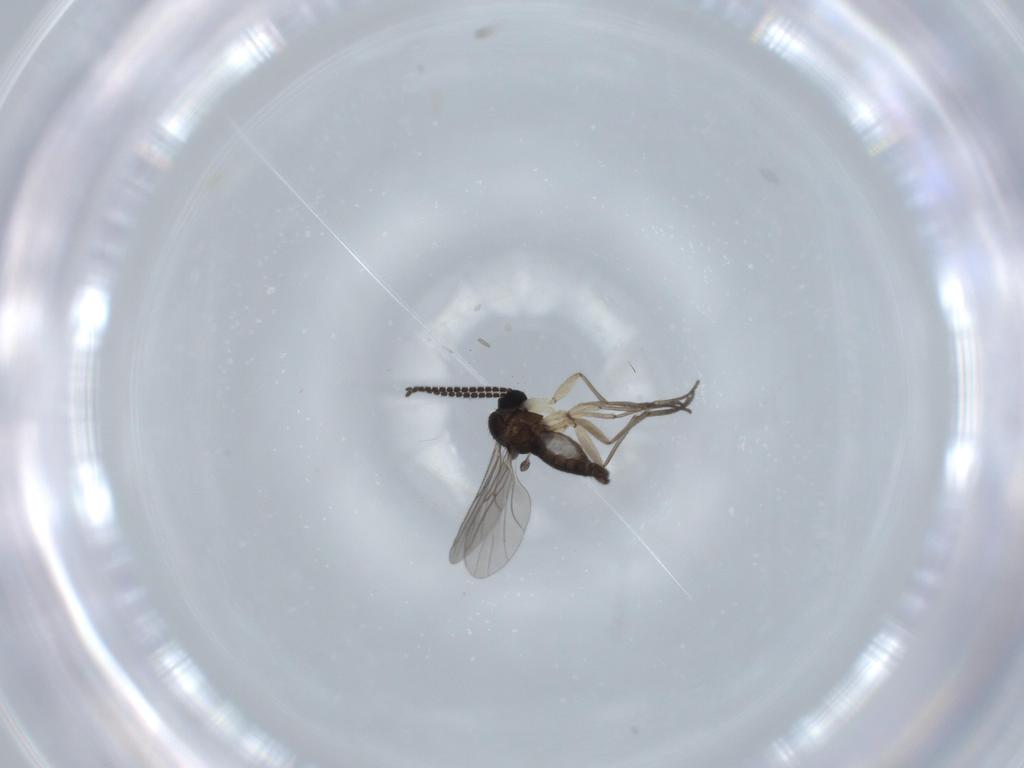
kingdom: Animalia
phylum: Arthropoda
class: Insecta
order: Diptera
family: Sciaridae
